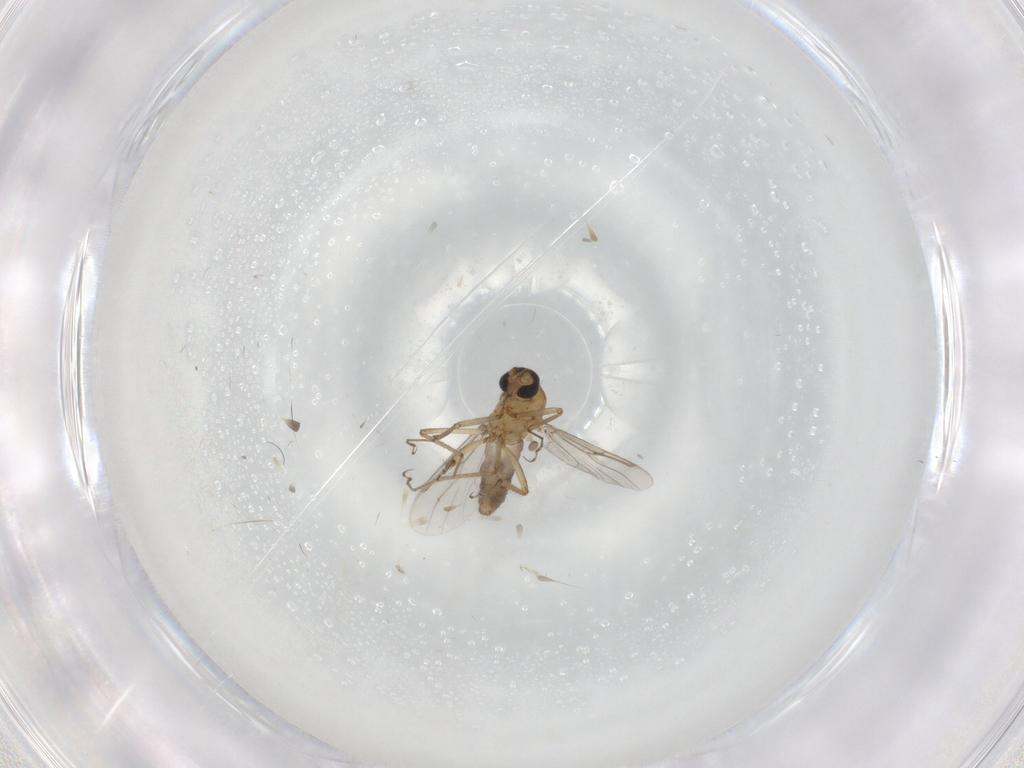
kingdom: Animalia
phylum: Arthropoda
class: Insecta
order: Diptera
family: Ceratopogonidae
